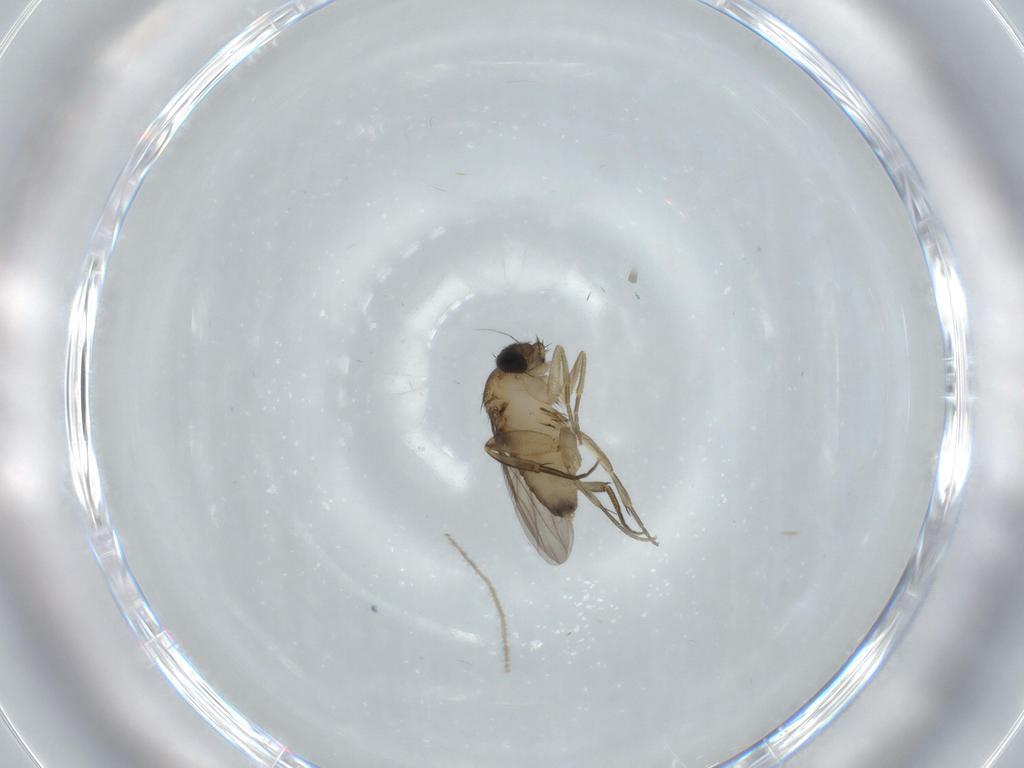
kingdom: Animalia
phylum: Arthropoda
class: Insecta
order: Diptera
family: Phoridae
